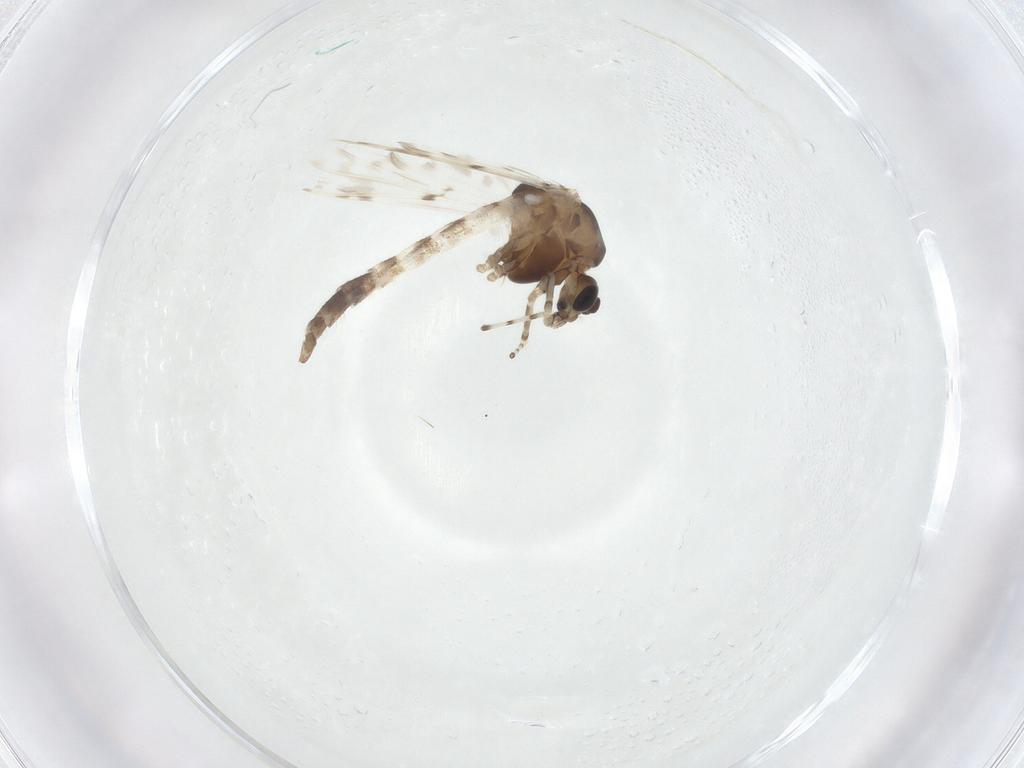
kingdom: Animalia
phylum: Arthropoda
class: Insecta
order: Diptera
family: Chironomidae
